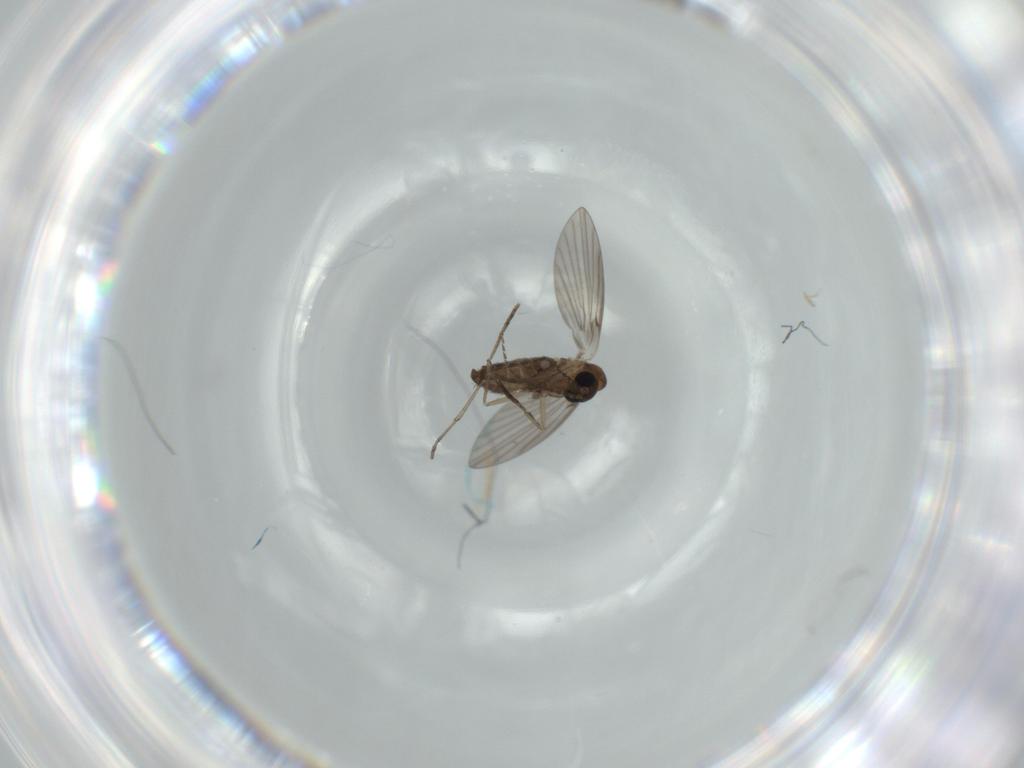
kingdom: Animalia
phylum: Arthropoda
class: Insecta
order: Diptera
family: Psychodidae
